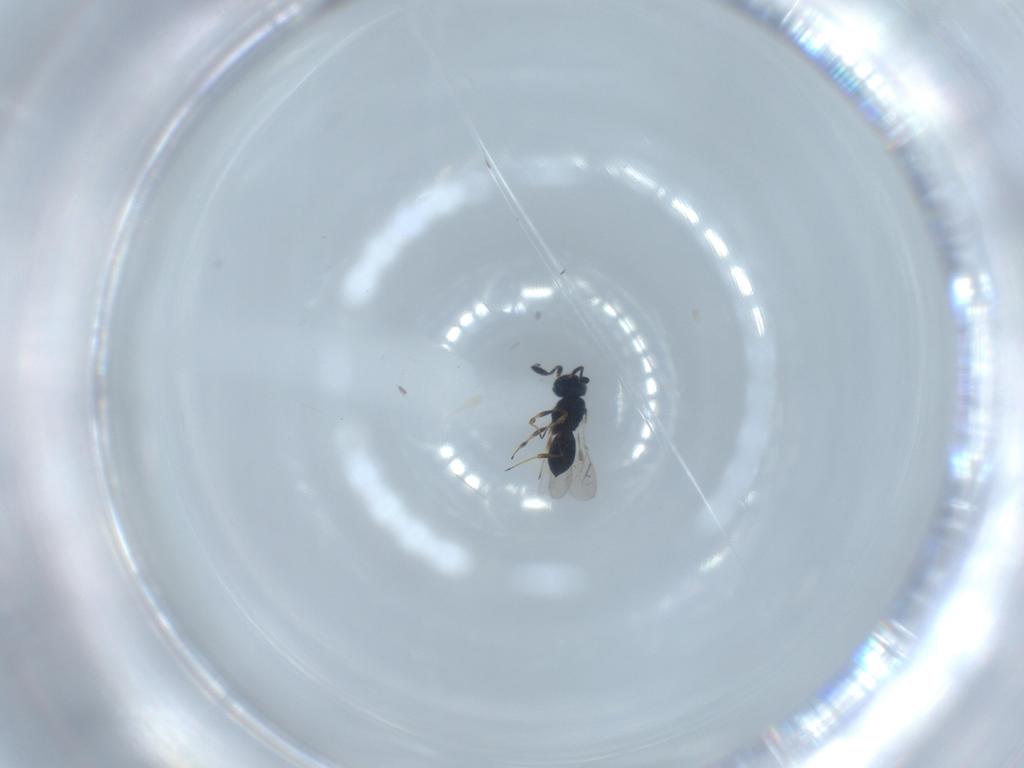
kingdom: Animalia
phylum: Arthropoda
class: Insecta
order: Hymenoptera
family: Scelionidae
